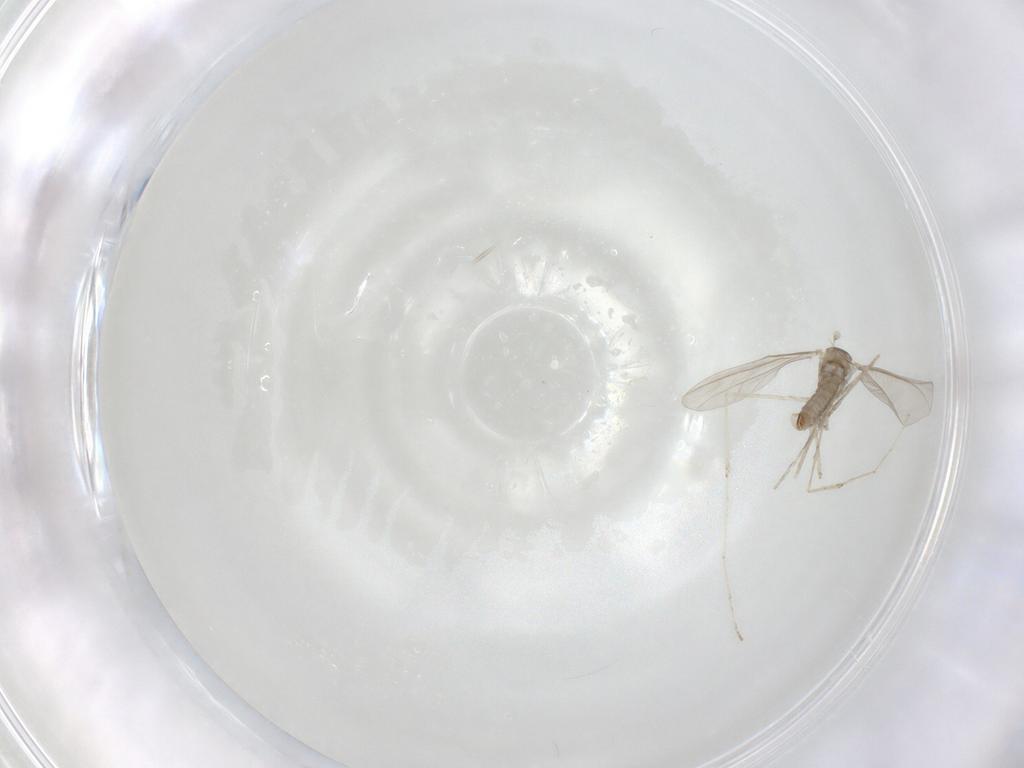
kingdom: Animalia
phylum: Arthropoda
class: Insecta
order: Diptera
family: Cecidomyiidae
